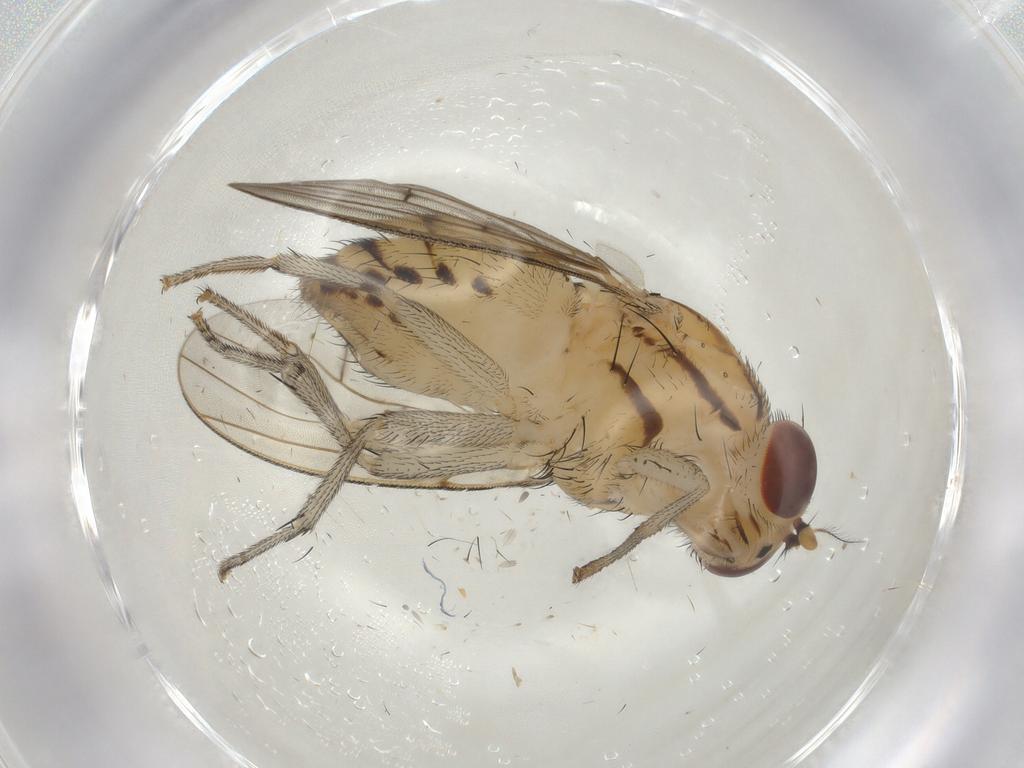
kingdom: Animalia
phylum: Arthropoda
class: Insecta
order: Diptera
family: Lauxaniidae
